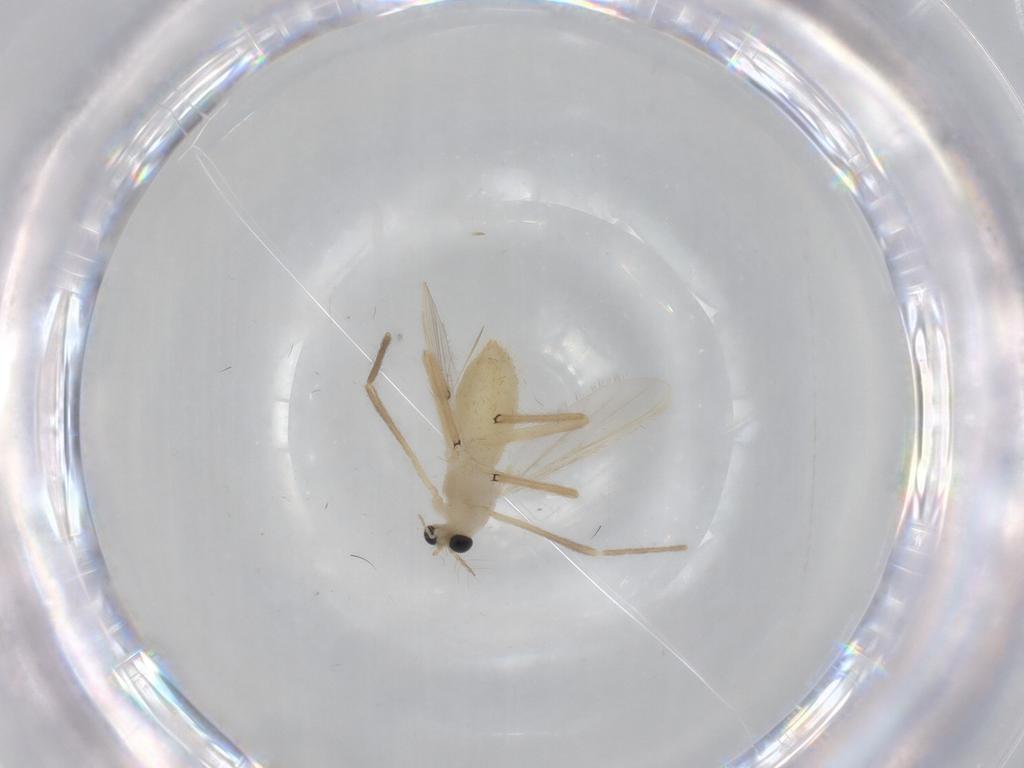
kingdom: Animalia
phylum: Arthropoda
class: Insecta
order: Diptera
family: Chironomidae
